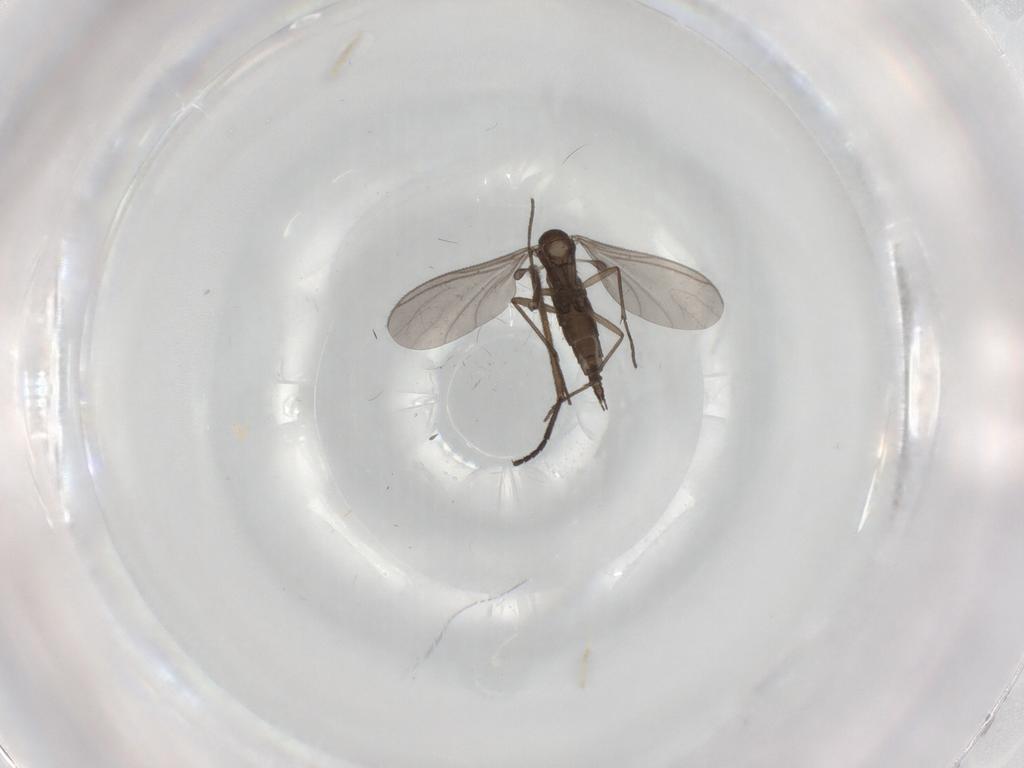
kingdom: Animalia
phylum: Arthropoda
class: Insecta
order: Diptera
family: Sciaridae
